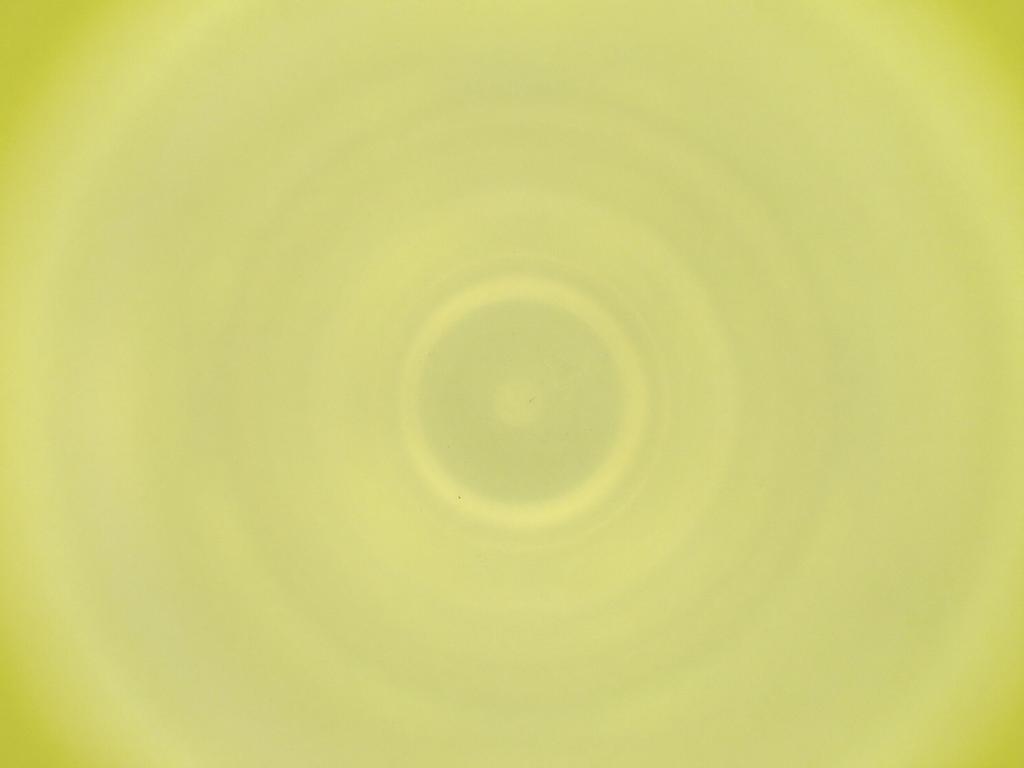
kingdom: Animalia
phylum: Arthropoda
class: Insecta
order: Diptera
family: Cecidomyiidae
